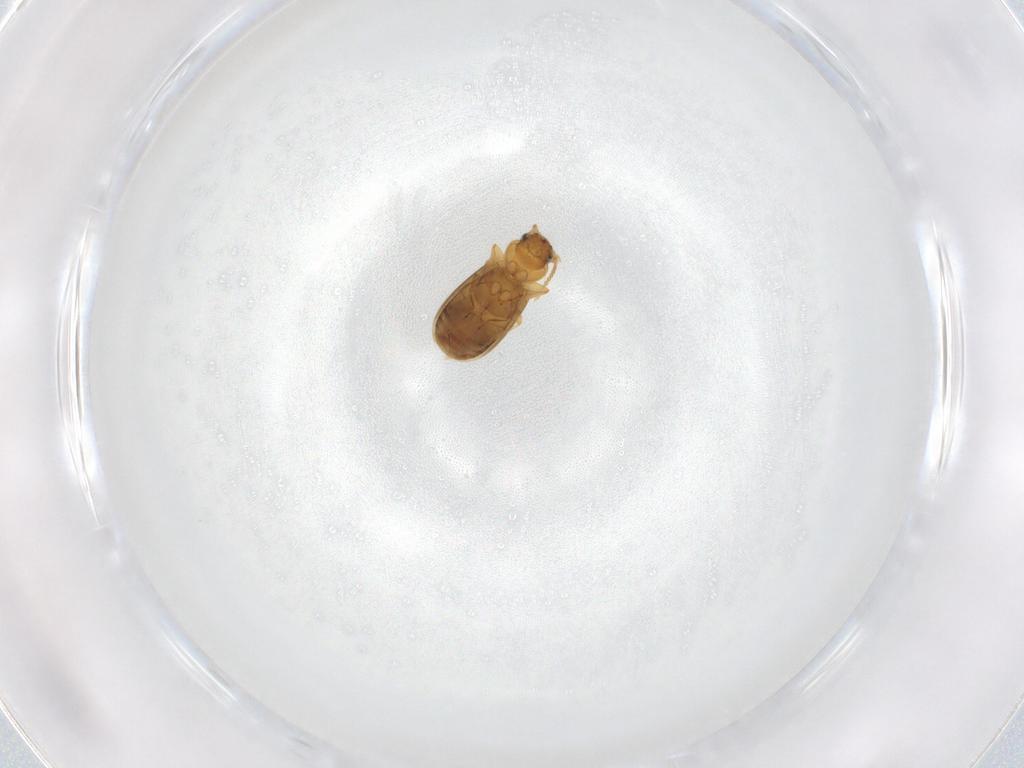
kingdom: Animalia
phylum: Arthropoda
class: Insecta
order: Coleoptera
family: Carabidae
